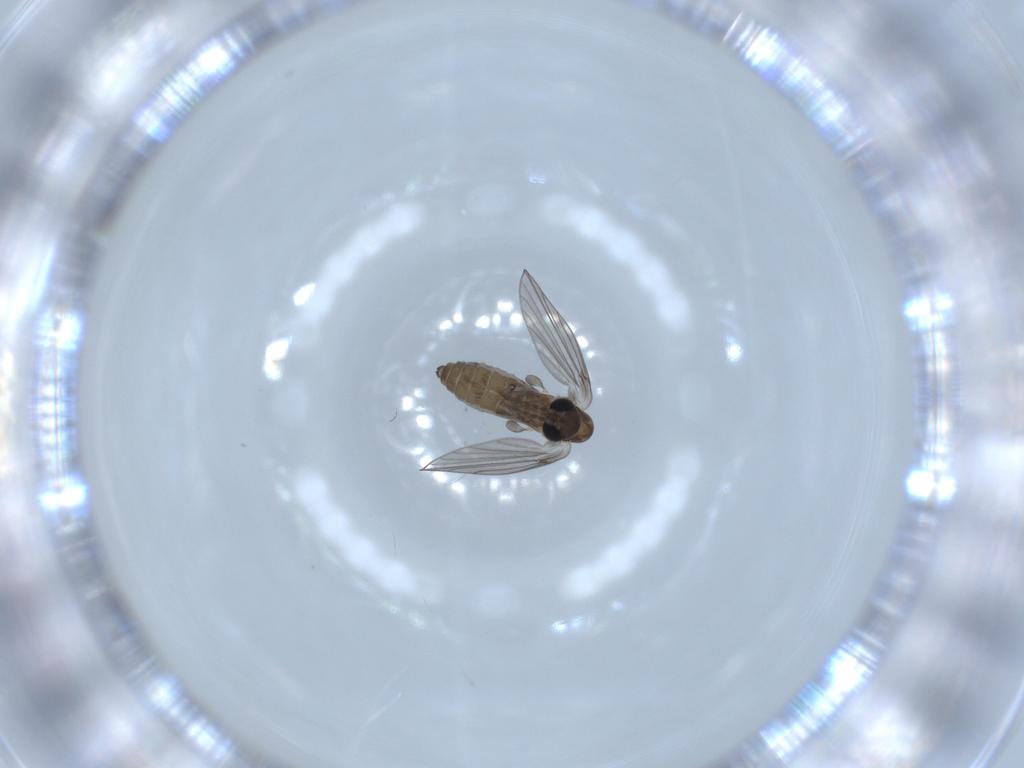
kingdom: Animalia
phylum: Arthropoda
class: Insecta
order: Diptera
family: Psychodidae
